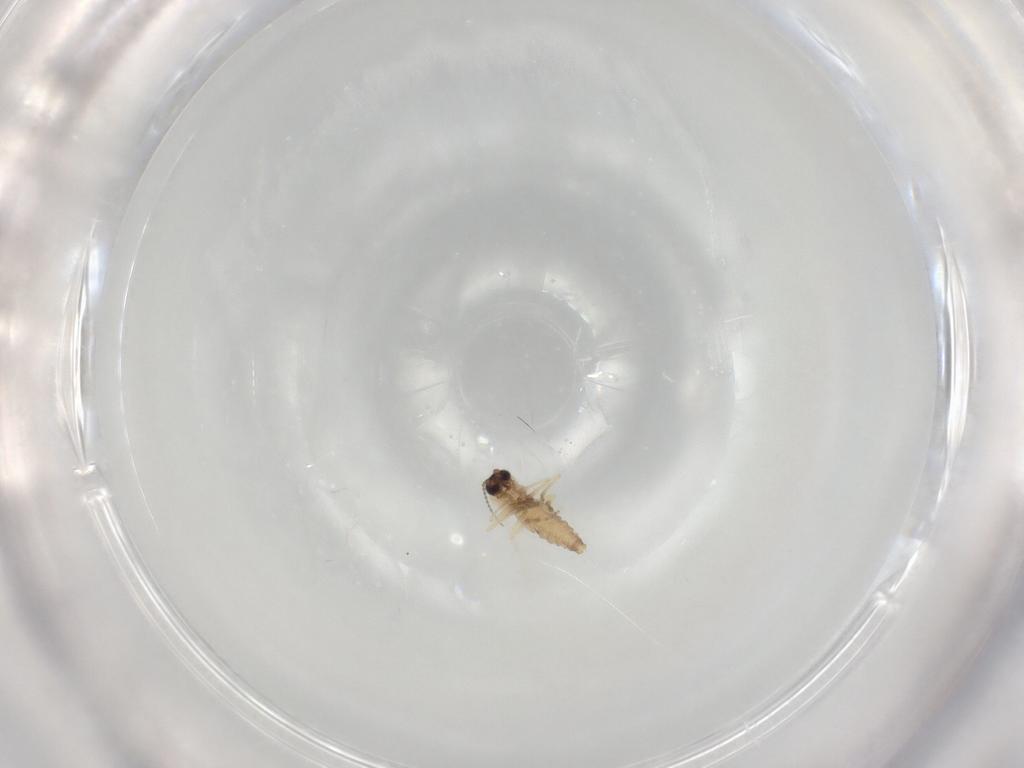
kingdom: Animalia
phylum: Arthropoda
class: Insecta
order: Diptera
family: Ceratopogonidae
